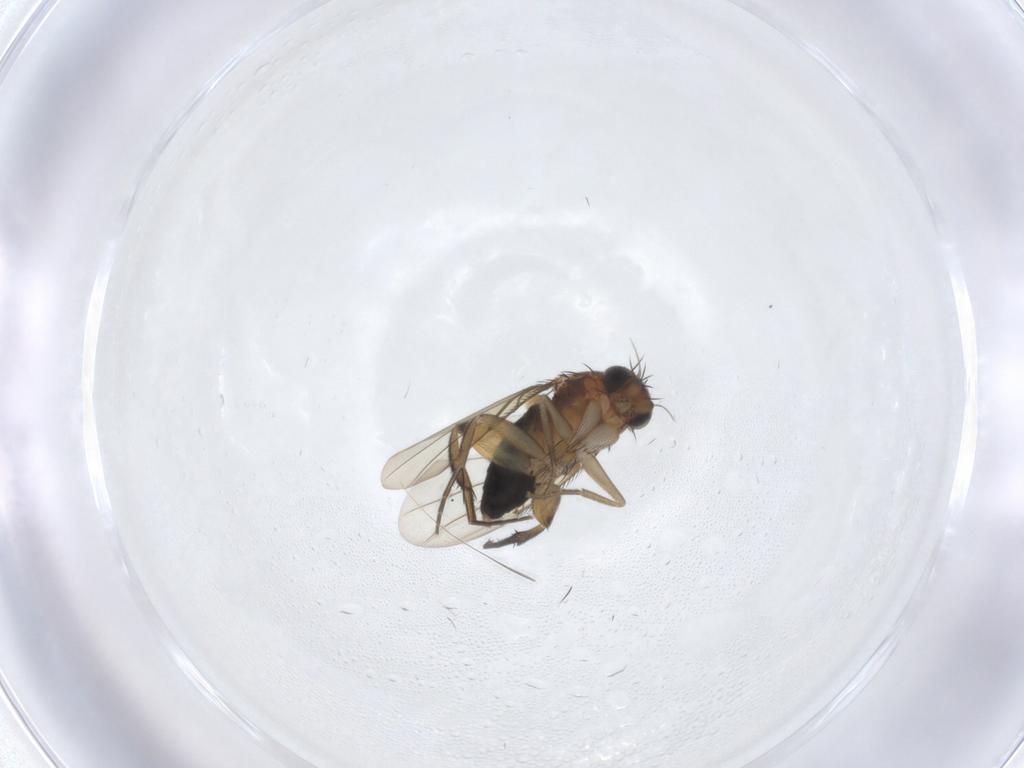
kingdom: Animalia
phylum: Arthropoda
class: Insecta
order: Diptera
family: Phoridae
